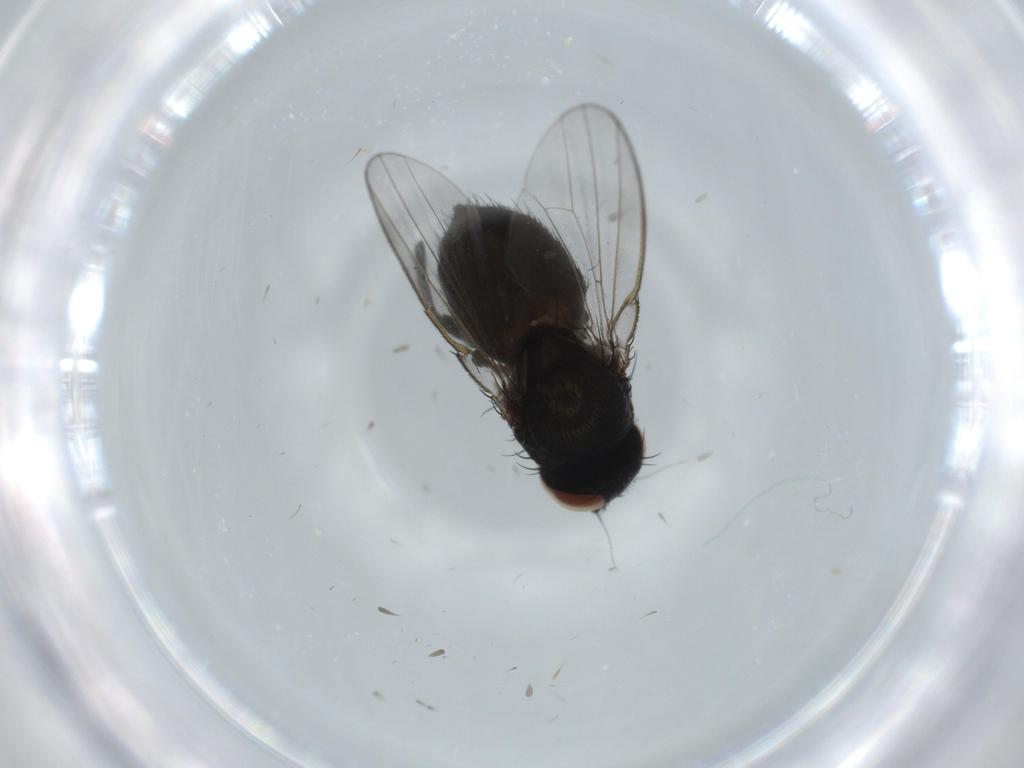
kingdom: Animalia
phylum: Arthropoda
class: Insecta
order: Diptera
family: Milichiidae
